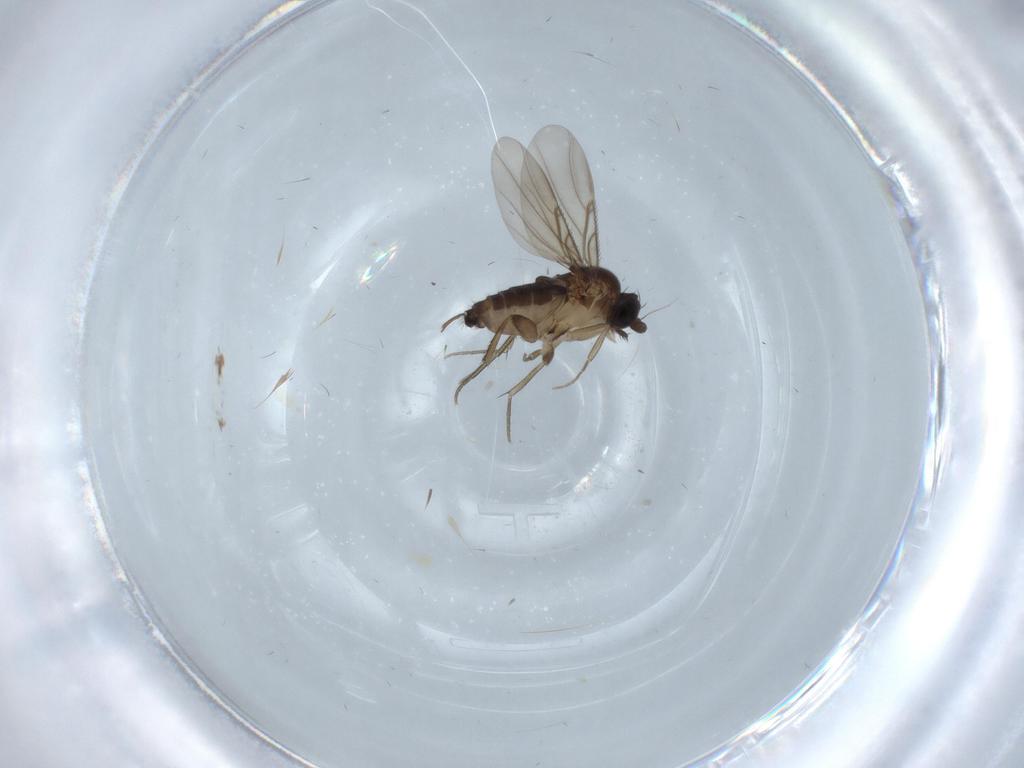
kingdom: Animalia
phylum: Arthropoda
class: Insecta
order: Diptera
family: Phoridae
